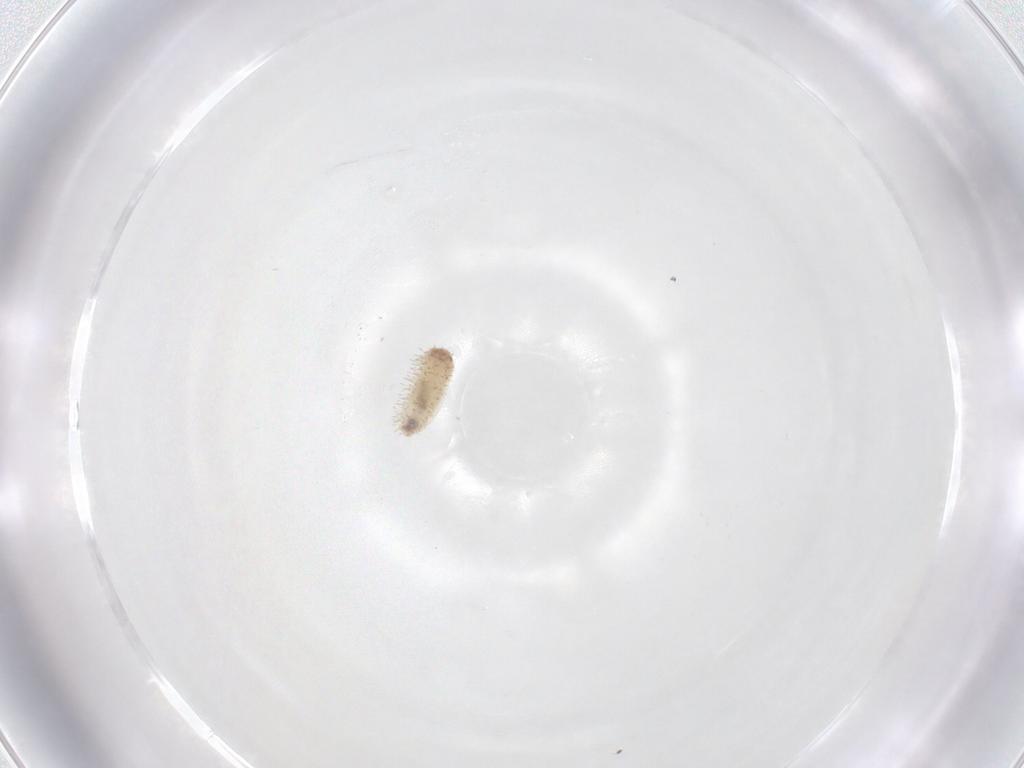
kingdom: Animalia
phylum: Arthropoda
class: Insecta
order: Lepidoptera
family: Limacodidae
